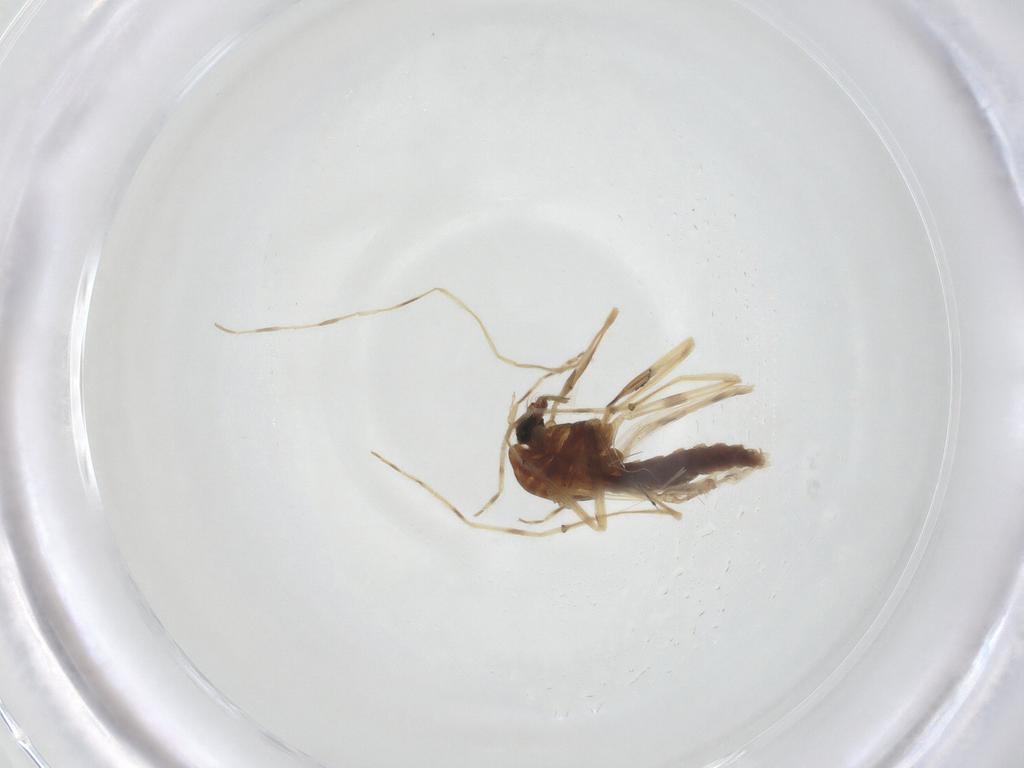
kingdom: Animalia
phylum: Arthropoda
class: Insecta
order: Diptera
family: Chironomidae
